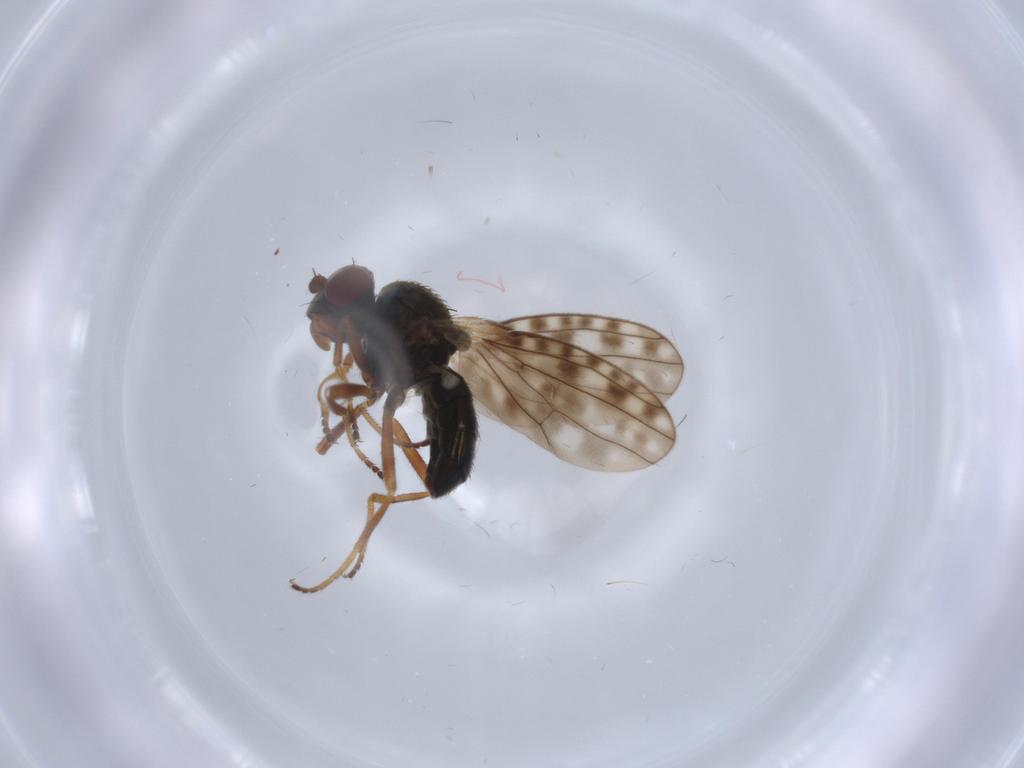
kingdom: Animalia
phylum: Arthropoda
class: Insecta
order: Diptera
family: Ephydridae
